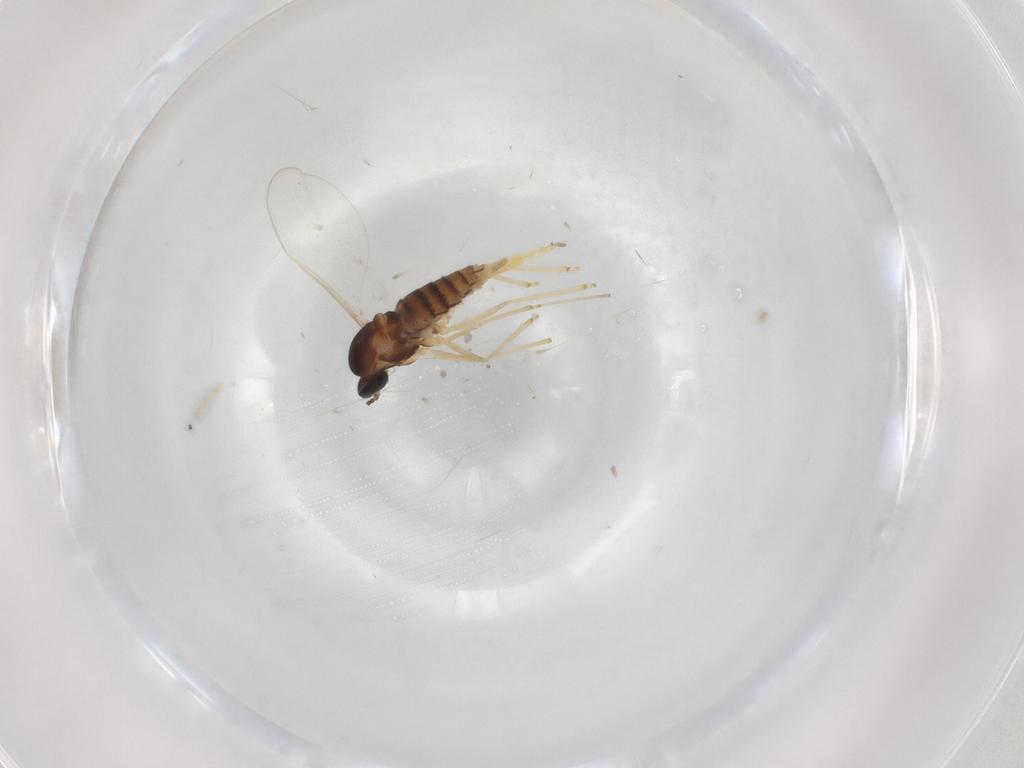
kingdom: Animalia
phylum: Arthropoda
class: Insecta
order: Diptera
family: Cecidomyiidae
